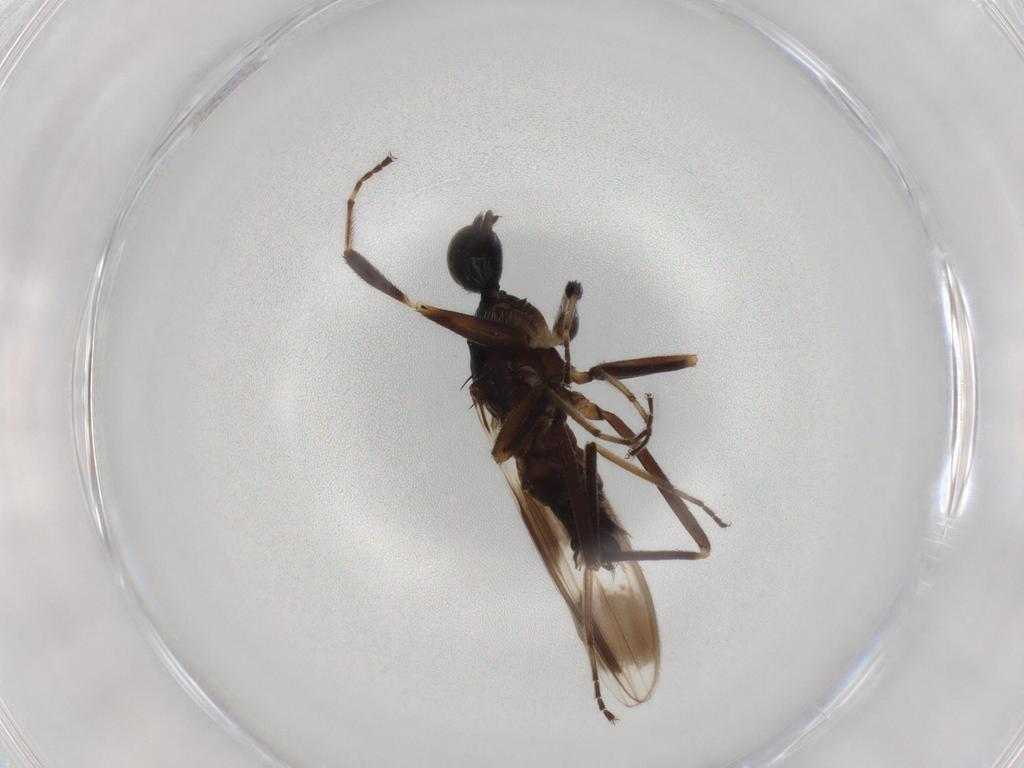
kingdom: Animalia
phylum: Arthropoda
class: Insecta
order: Diptera
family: Hybotidae
